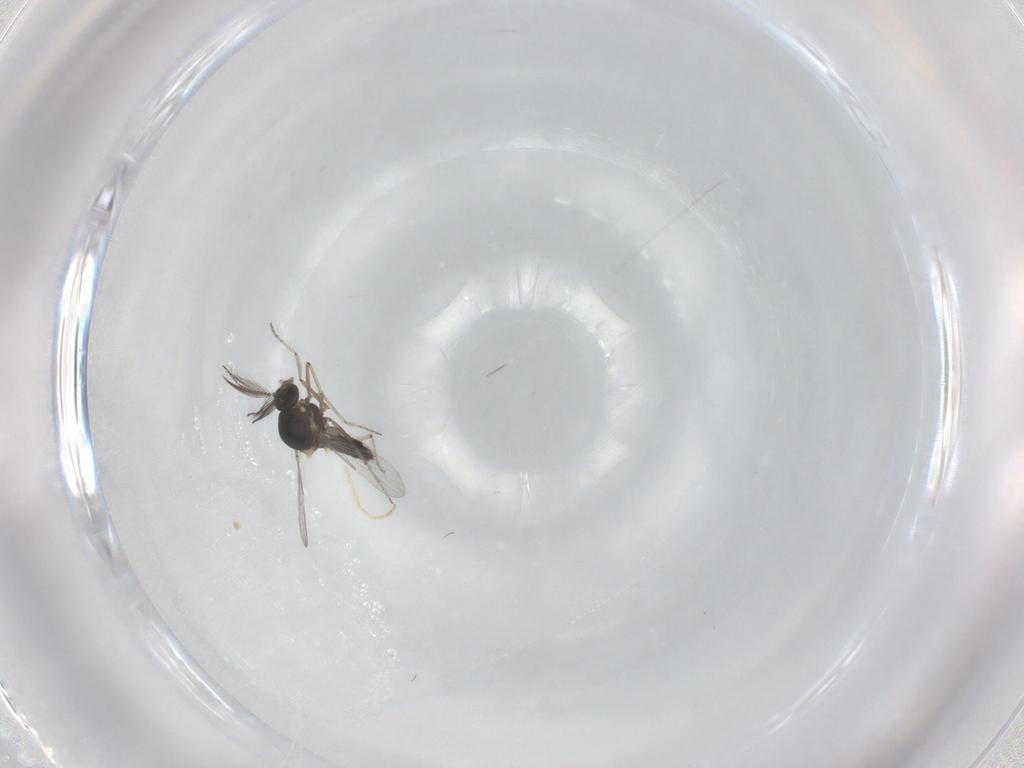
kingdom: Animalia
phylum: Arthropoda
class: Insecta
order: Diptera
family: Ceratopogonidae
